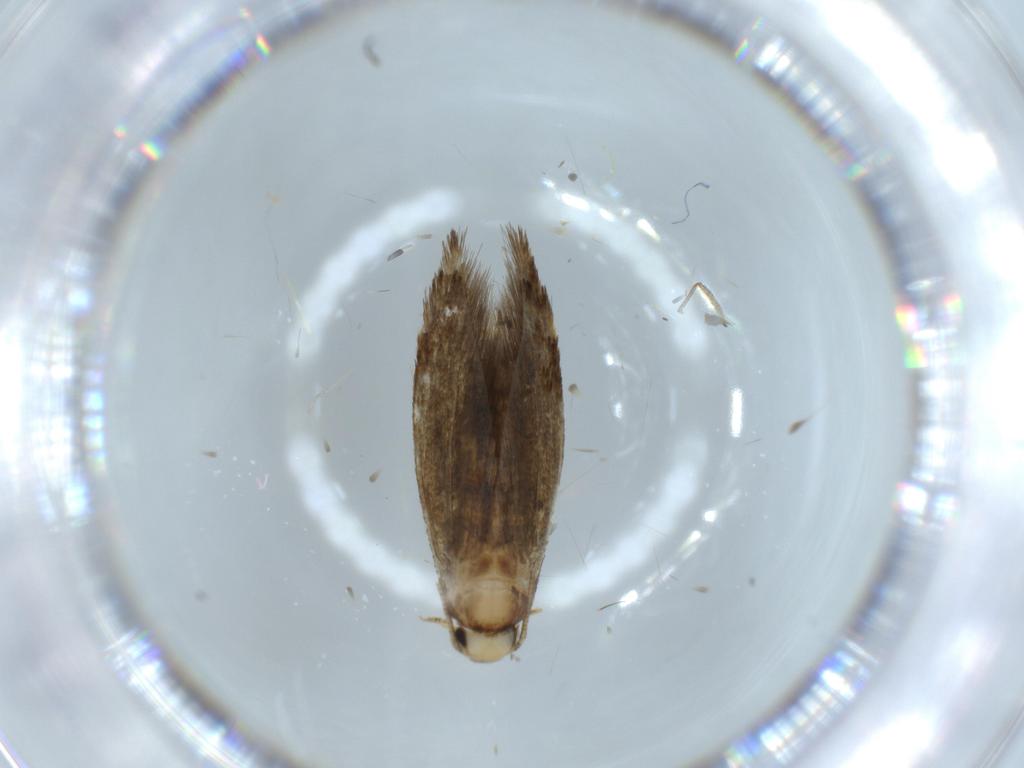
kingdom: Animalia
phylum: Arthropoda
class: Insecta
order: Lepidoptera
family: Tineidae
